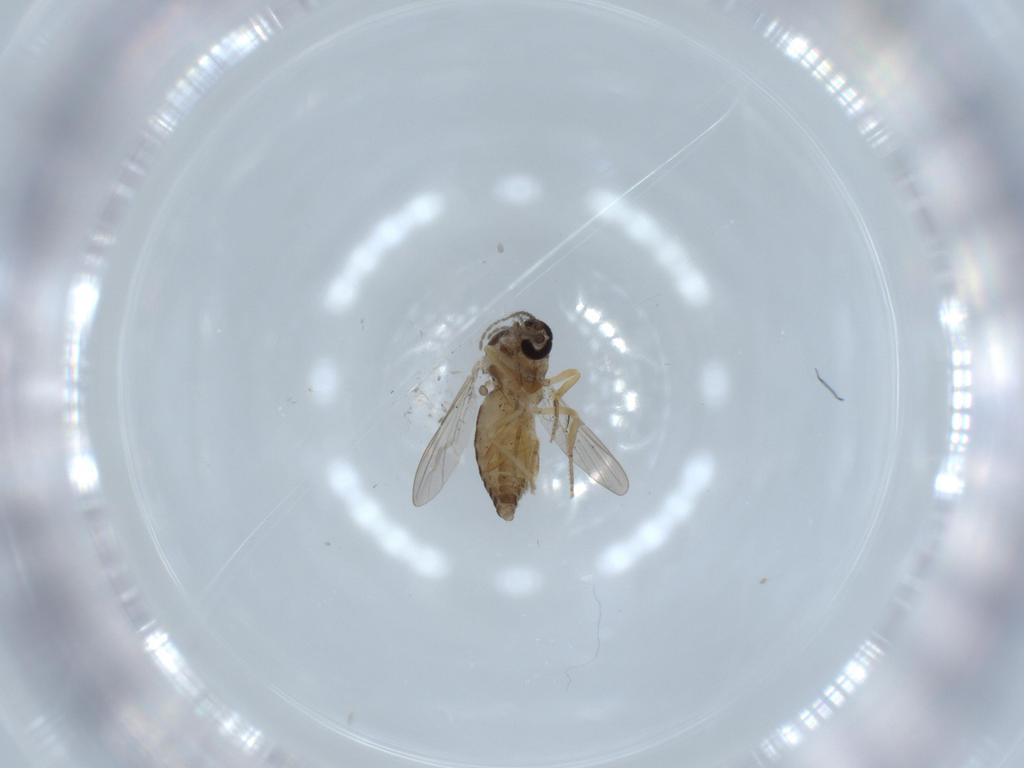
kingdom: Animalia
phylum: Arthropoda
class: Insecta
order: Diptera
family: Ceratopogonidae
